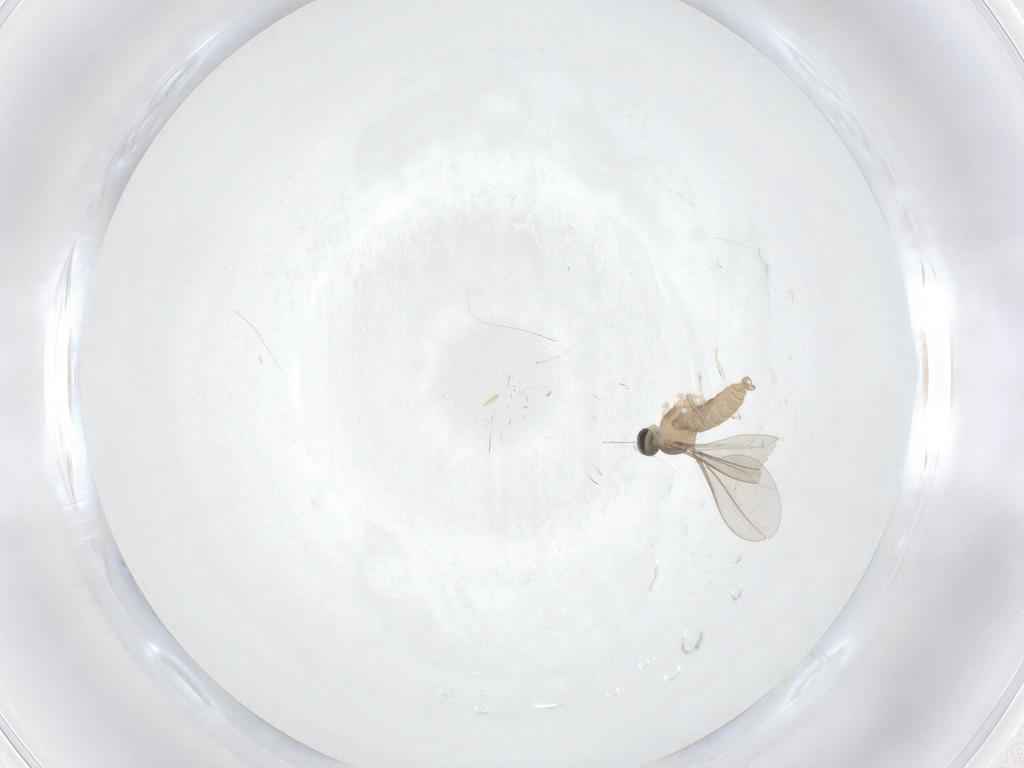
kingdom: Animalia
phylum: Arthropoda
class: Insecta
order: Diptera
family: Cecidomyiidae
